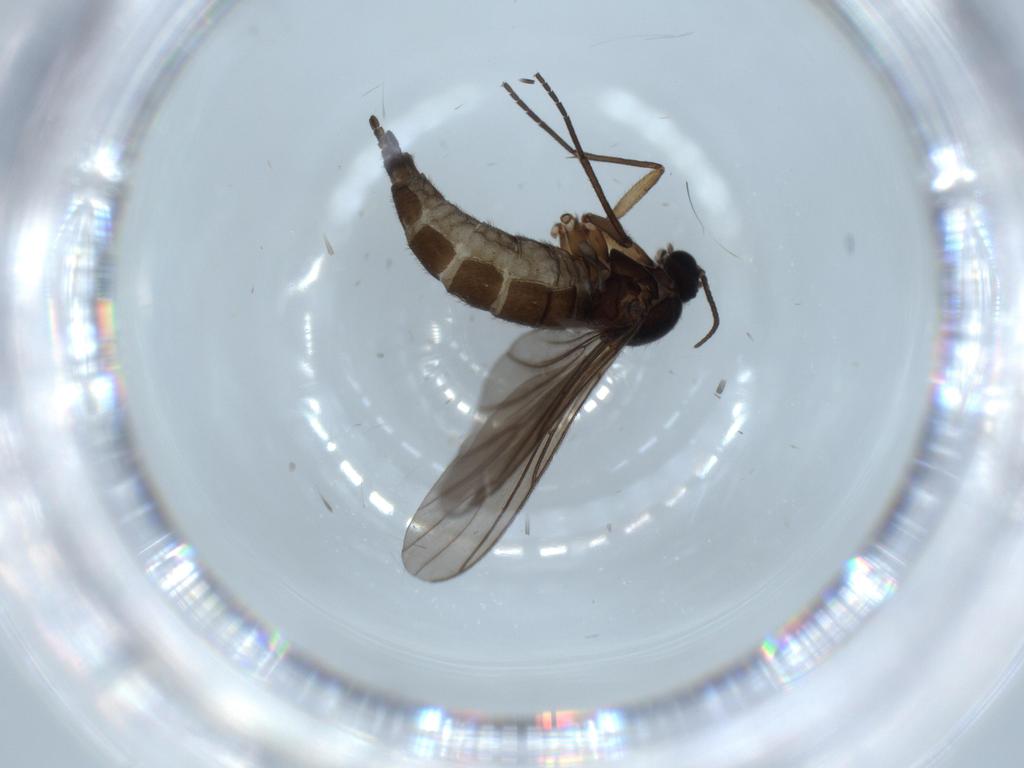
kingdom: Animalia
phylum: Arthropoda
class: Insecta
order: Diptera
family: Sciaridae
